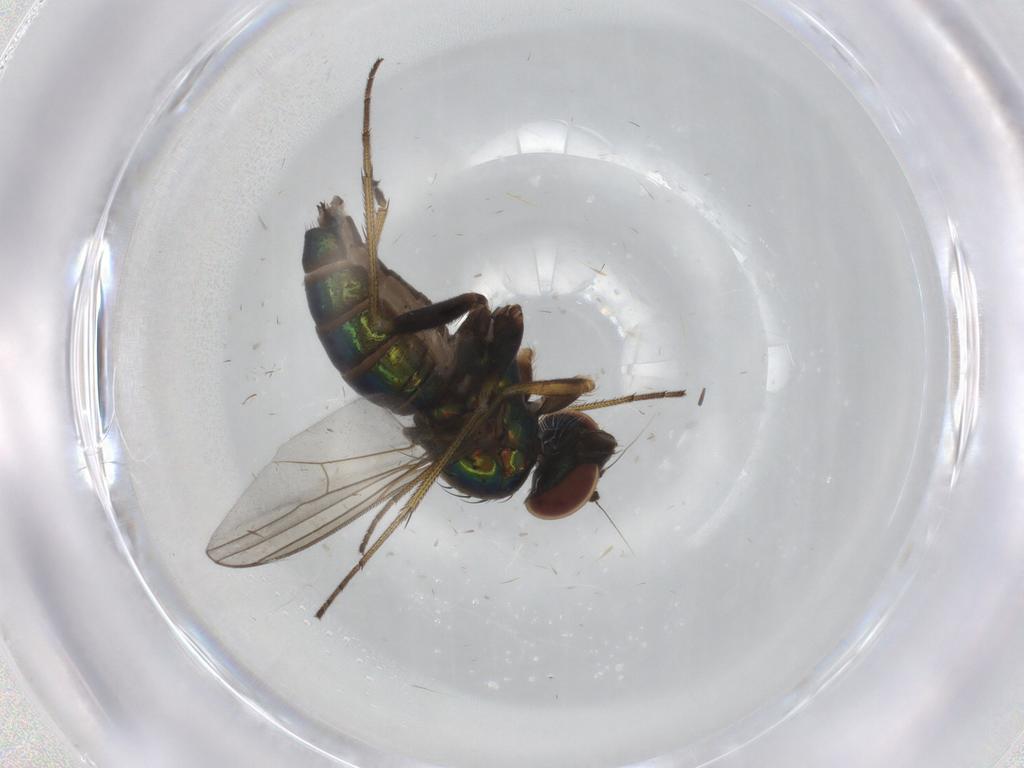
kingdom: Animalia
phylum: Arthropoda
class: Insecta
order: Diptera
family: Dolichopodidae
